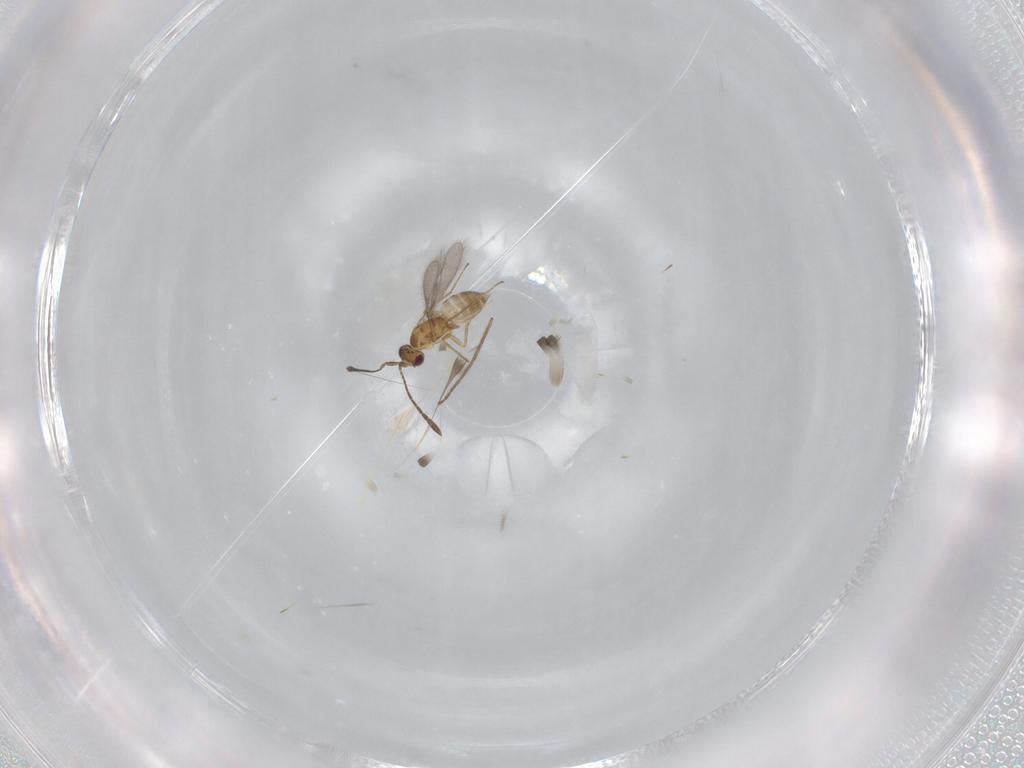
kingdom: Animalia
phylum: Arthropoda
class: Insecta
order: Hymenoptera
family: Mymaridae
